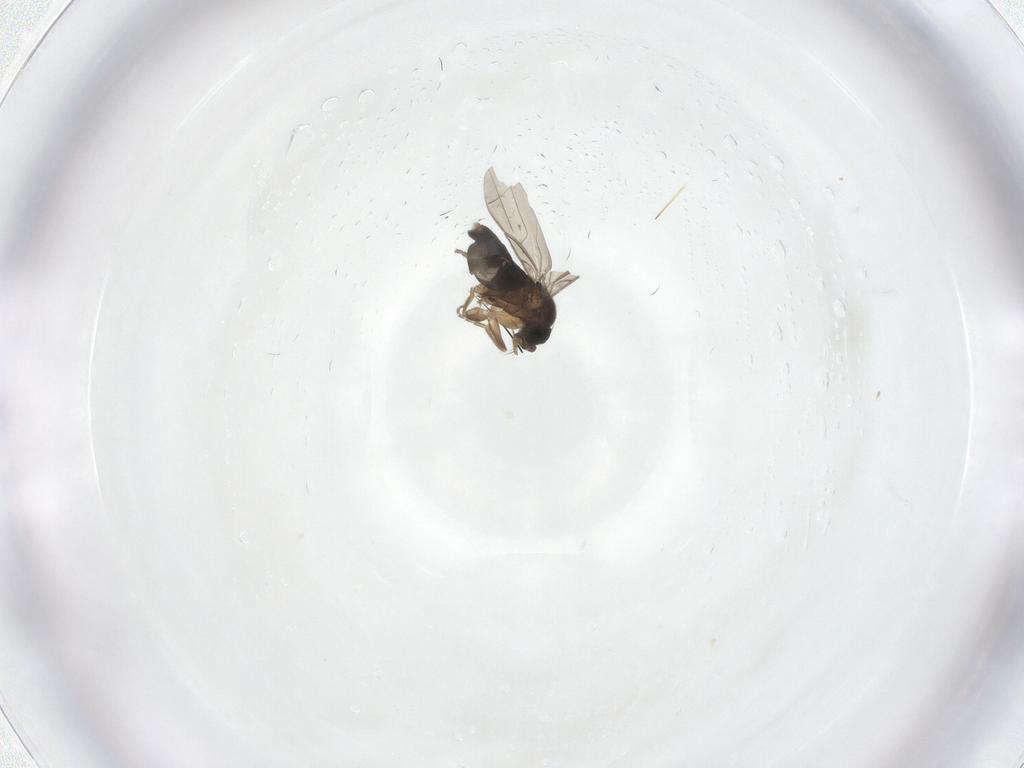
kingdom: Animalia
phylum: Arthropoda
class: Insecta
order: Diptera
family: Phoridae
